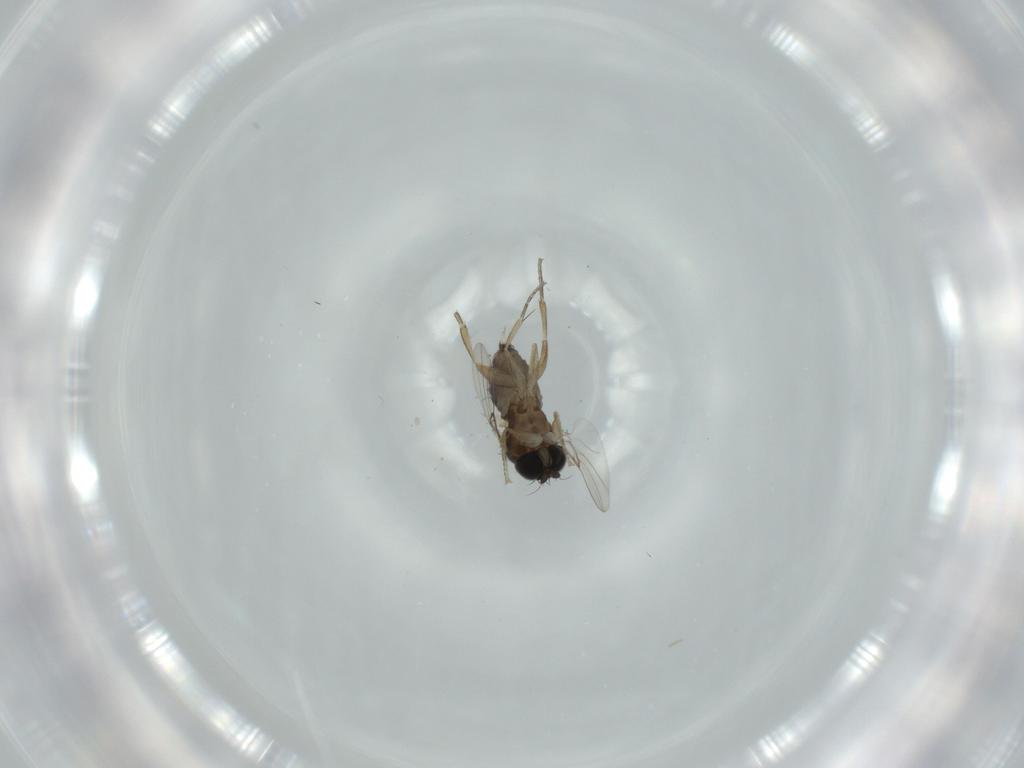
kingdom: Animalia
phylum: Arthropoda
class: Insecta
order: Diptera
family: Phoridae
